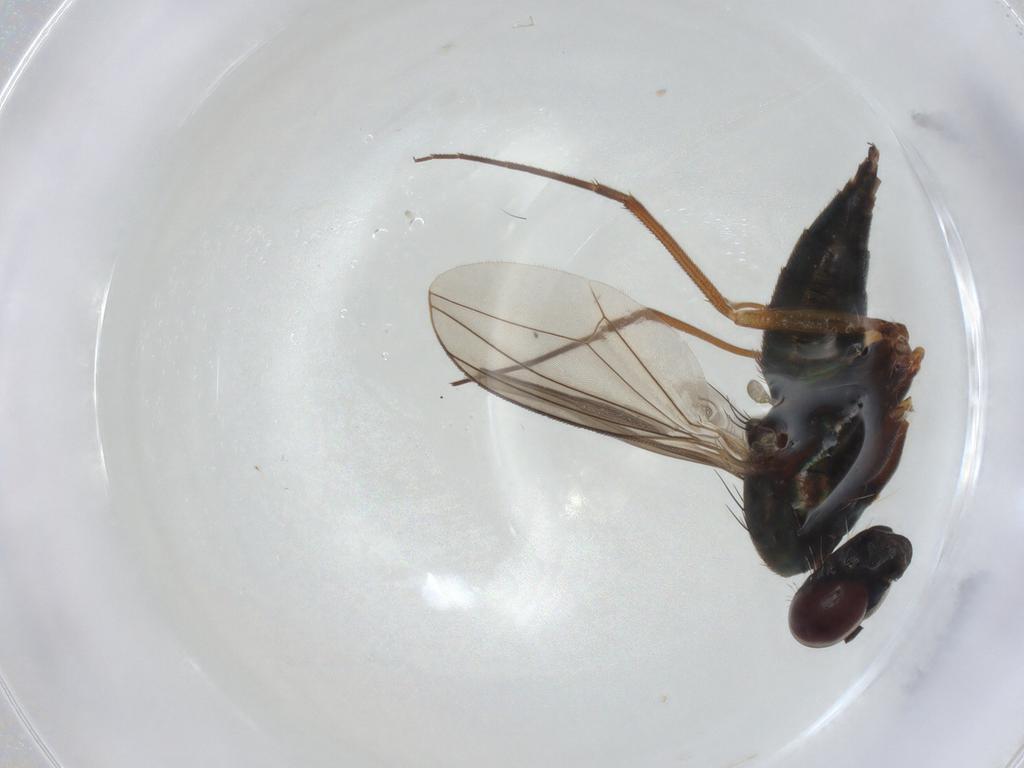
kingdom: Animalia
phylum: Arthropoda
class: Insecta
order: Diptera
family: Dolichopodidae
